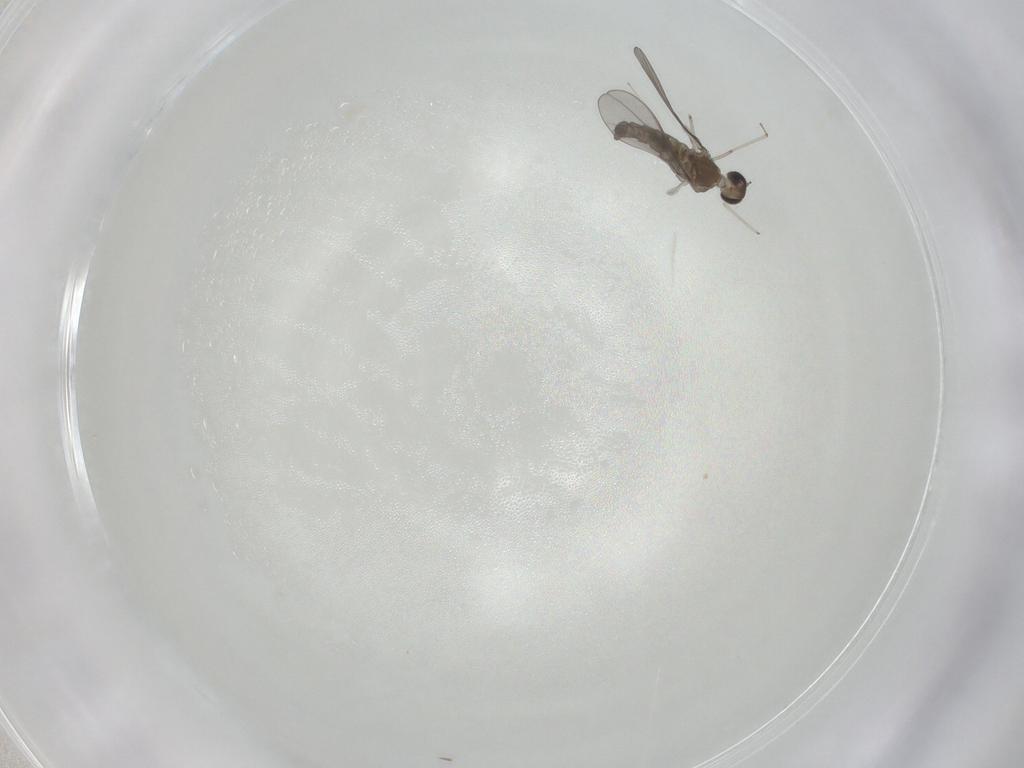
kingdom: Animalia
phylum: Arthropoda
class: Insecta
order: Diptera
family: Cecidomyiidae
